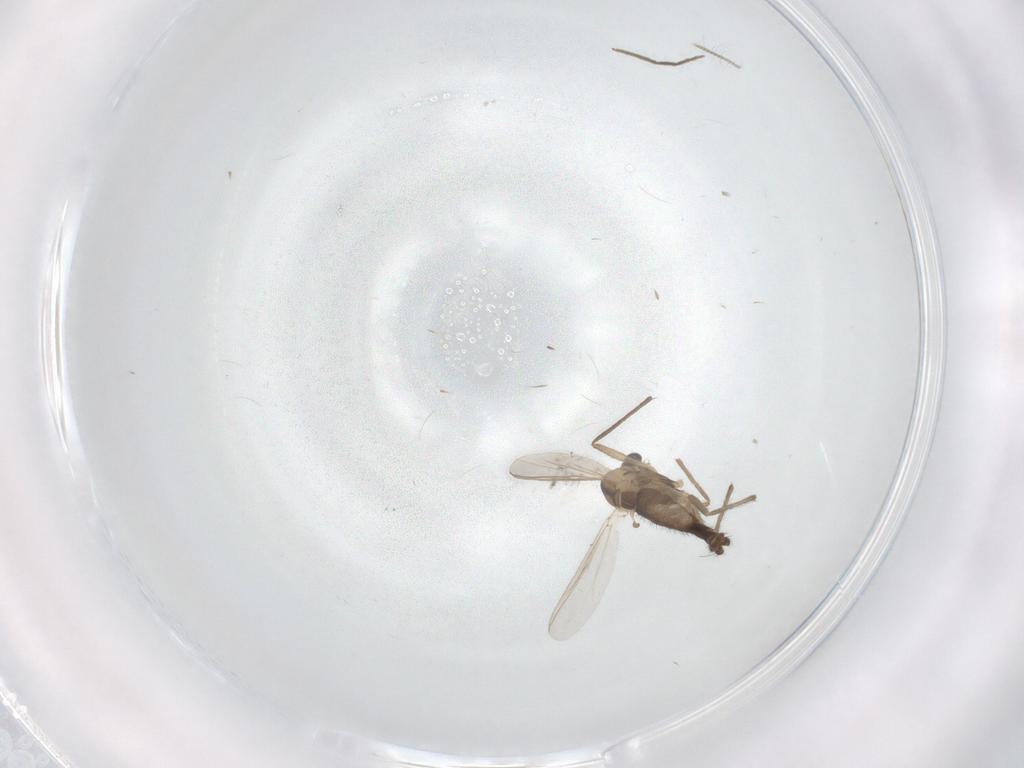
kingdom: Animalia
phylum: Arthropoda
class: Insecta
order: Diptera
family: Chironomidae
